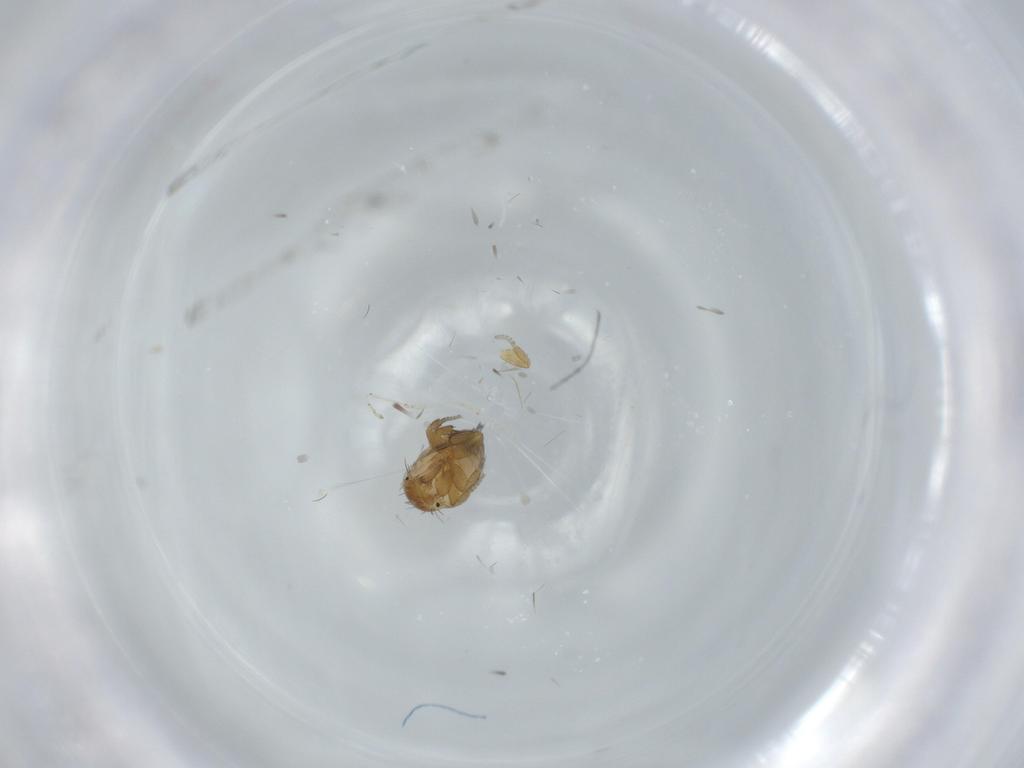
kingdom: Animalia
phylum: Arthropoda
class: Insecta
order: Diptera
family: Phoridae
